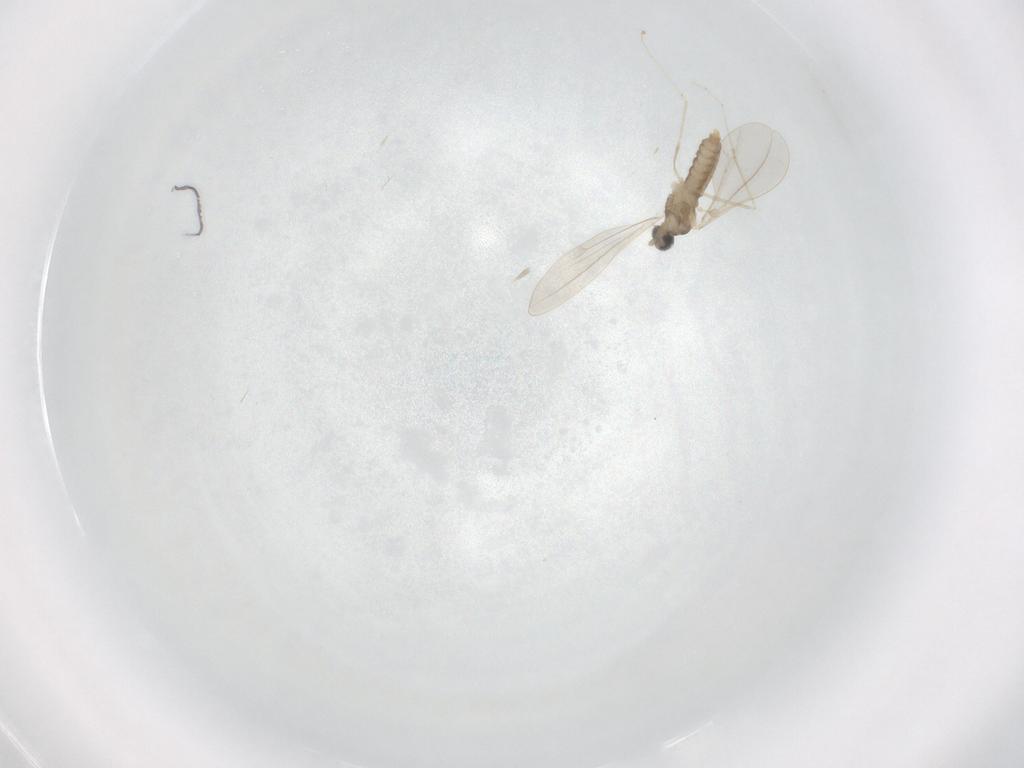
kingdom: Animalia
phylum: Arthropoda
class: Insecta
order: Diptera
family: Cecidomyiidae
